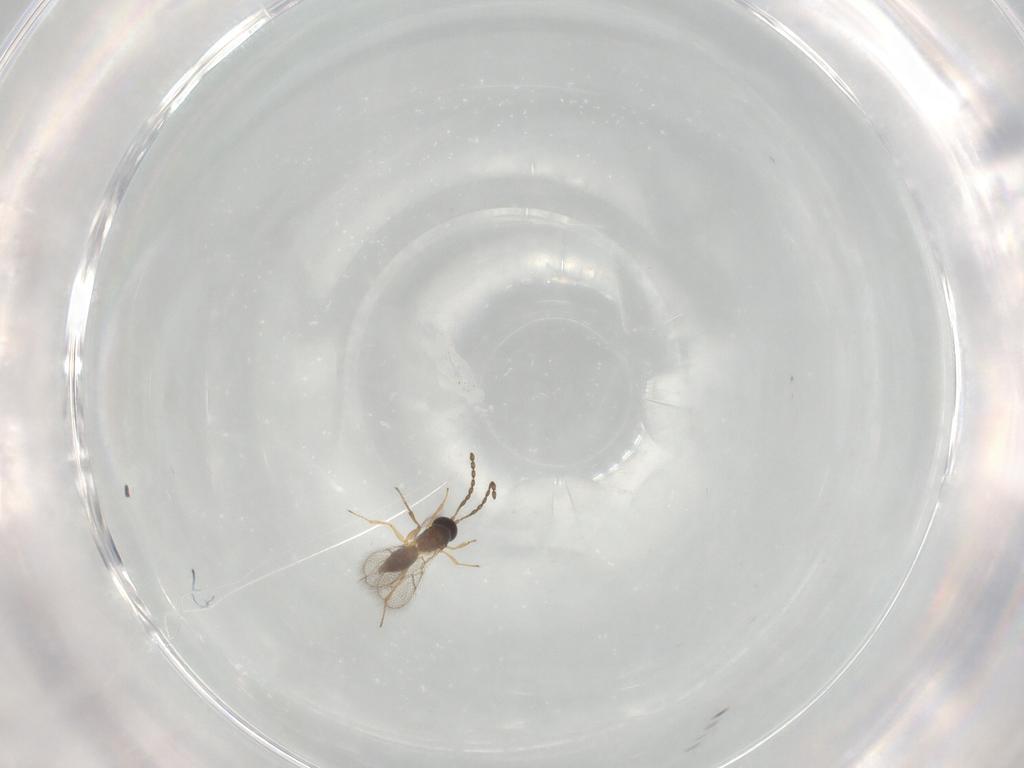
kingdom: Animalia
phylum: Arthropoda
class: Insecta
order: Hymenoptera
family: Figitidae
